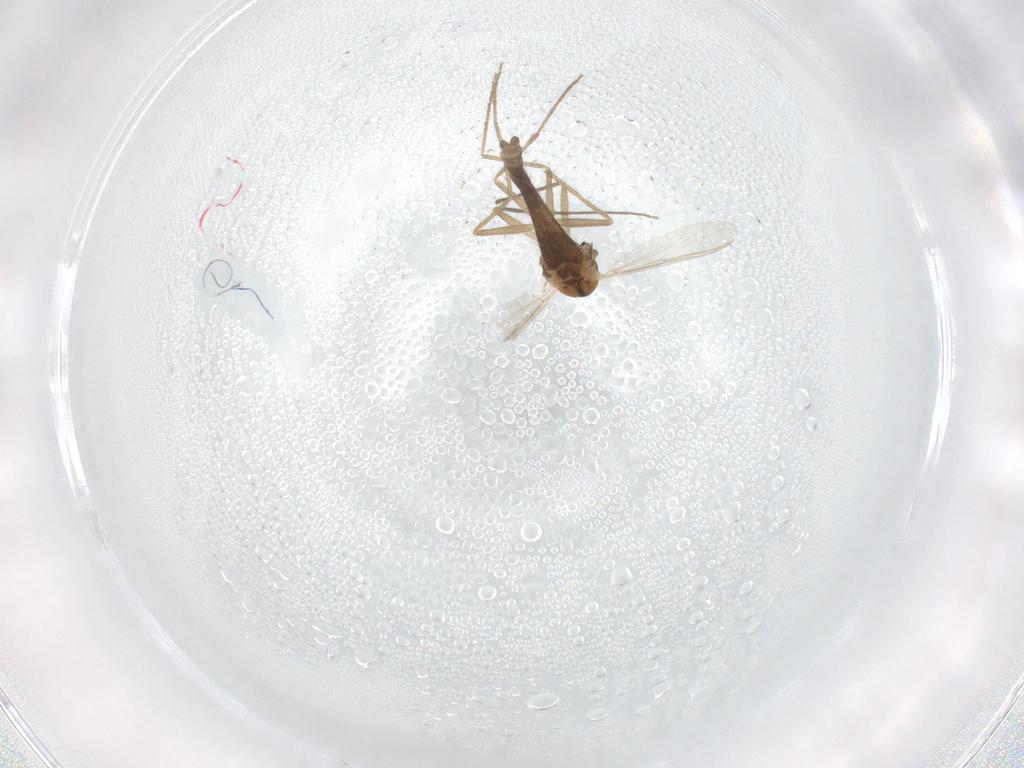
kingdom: Animalia
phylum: Arthropoda
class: Insecta
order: Diptera
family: Chironomidae
